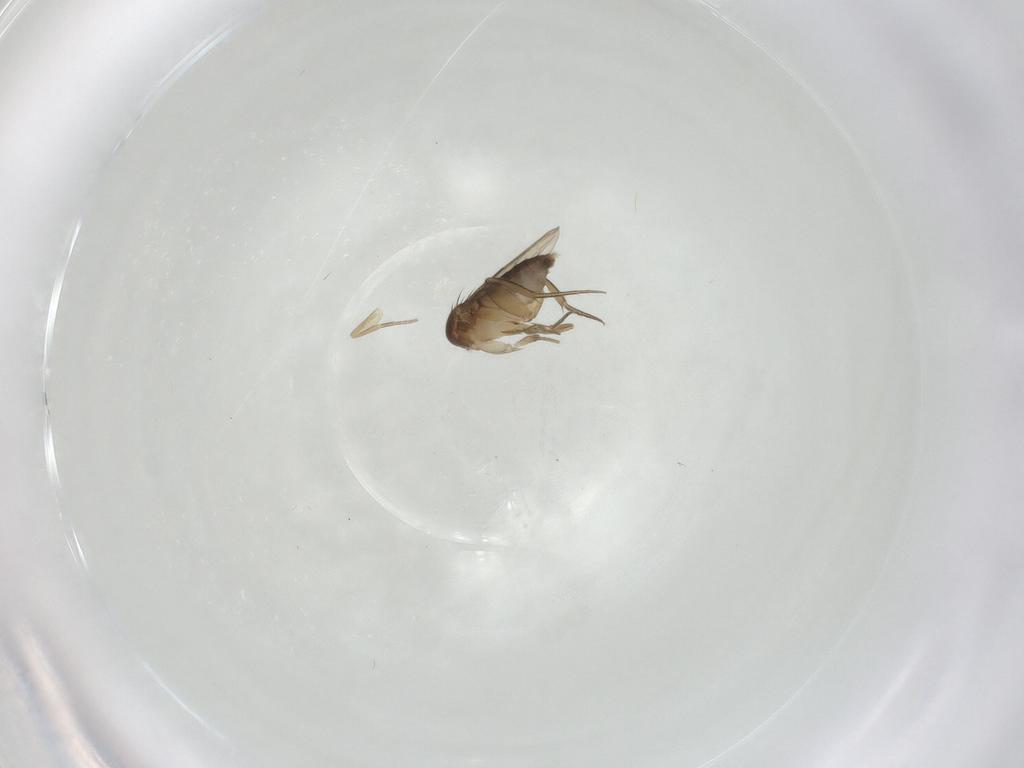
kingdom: Animalia
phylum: Arthropoda
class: Insecta
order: Diptera
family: Phoridae
